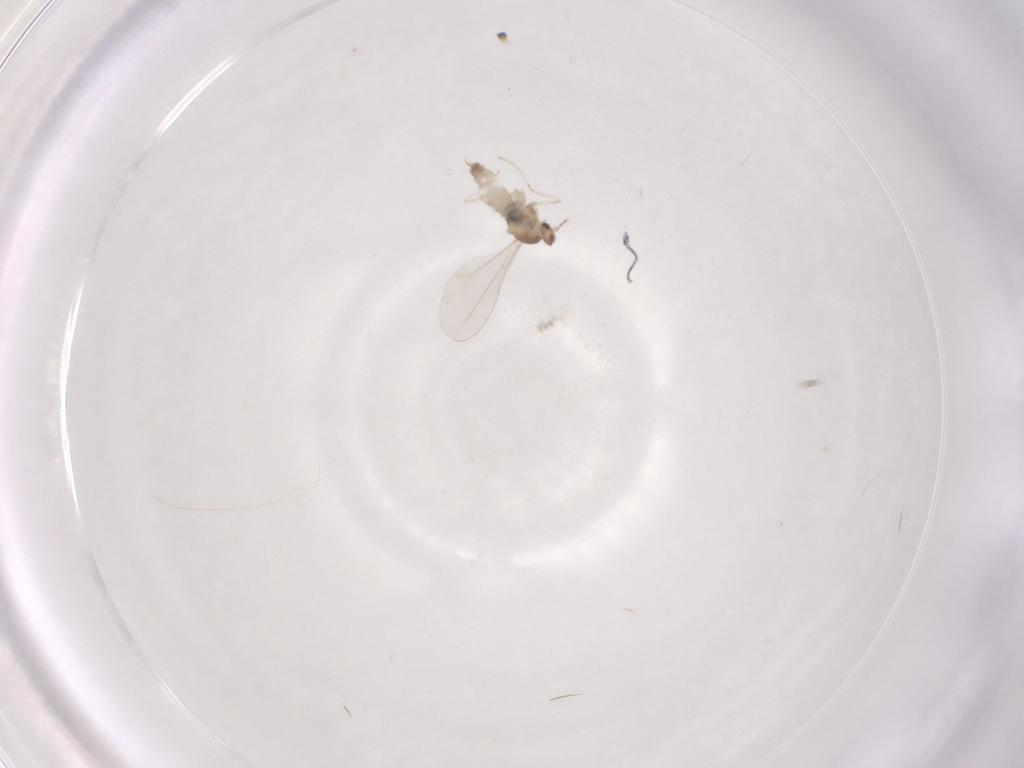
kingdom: Animalia
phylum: Arthropoda
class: Insecta
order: Diptera
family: Cecidomyiidae
